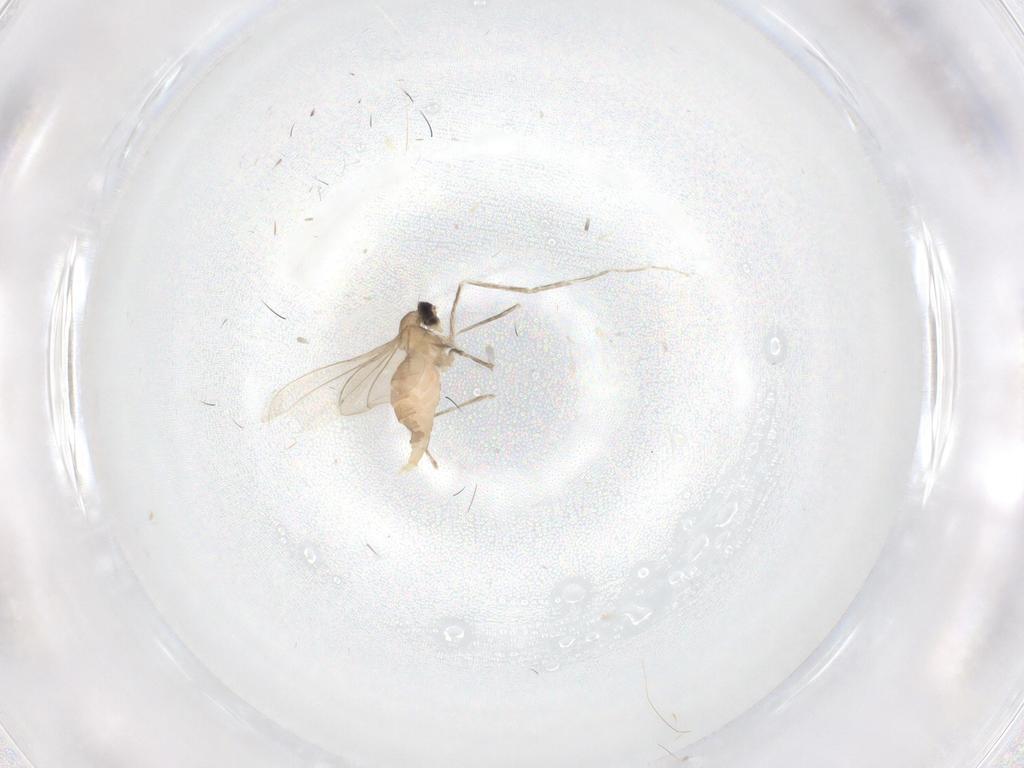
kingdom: Animalia
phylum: Arthropoda
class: Insecta
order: Diptera
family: Cecidomyiidae
